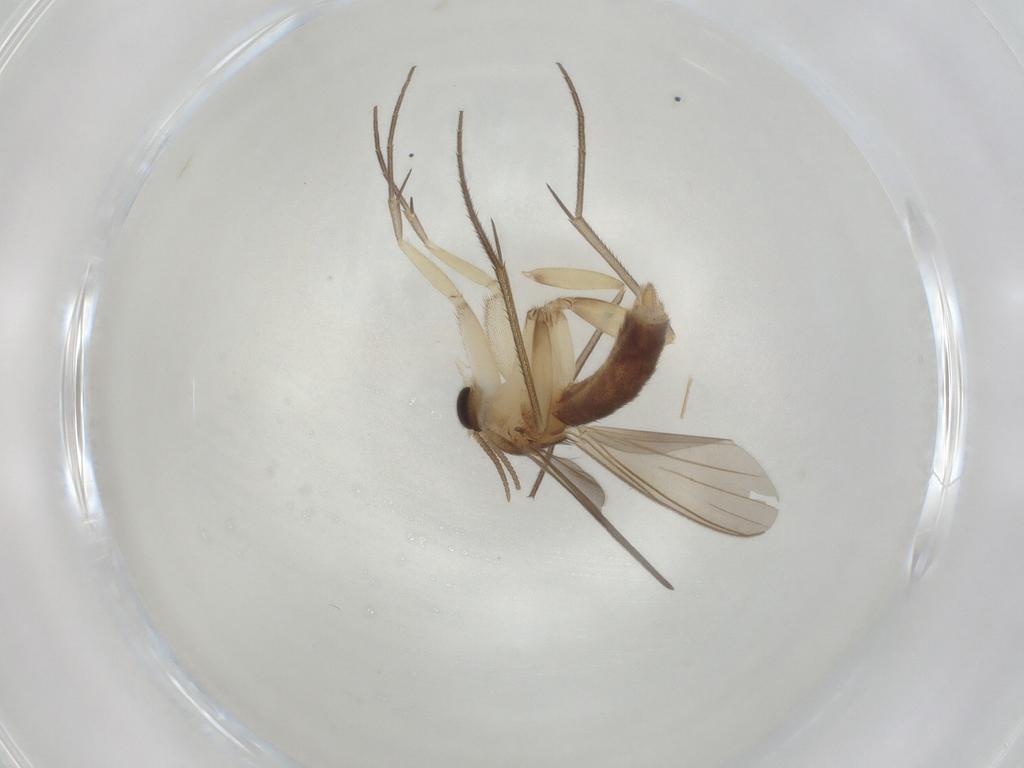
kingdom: Animalia
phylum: Arthropoda
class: Insecta
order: Diptera
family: Mycetophilidae
